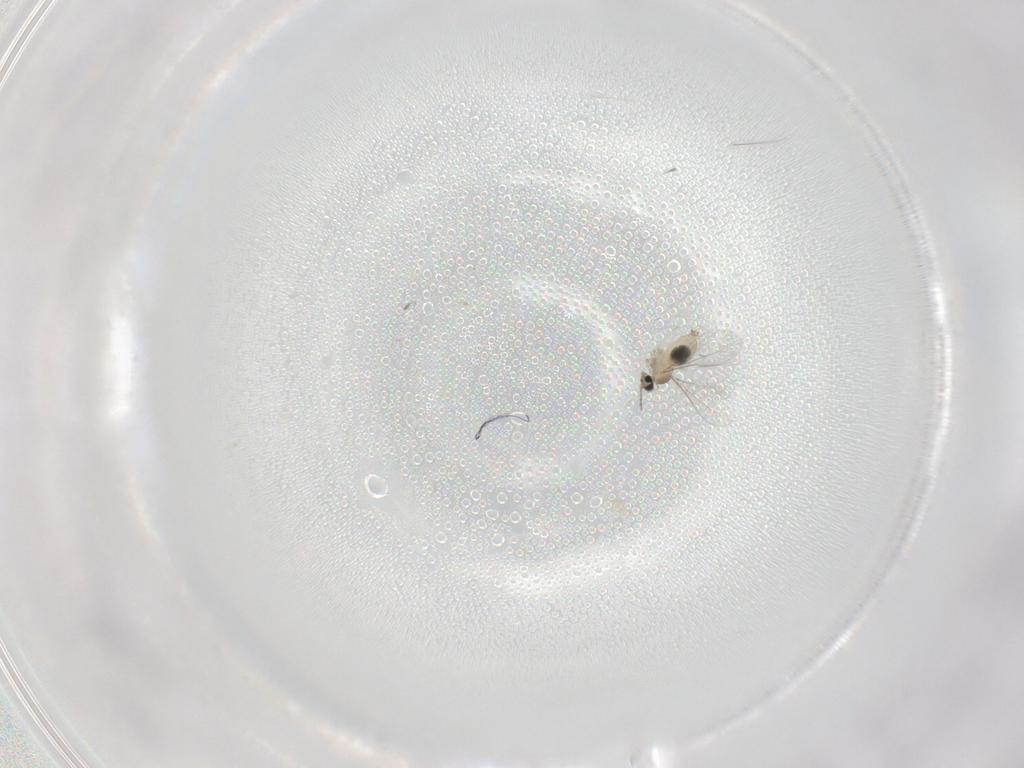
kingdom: Animalia
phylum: Arthropoda
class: Insecta
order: Diptera
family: Cecidomyiidae
